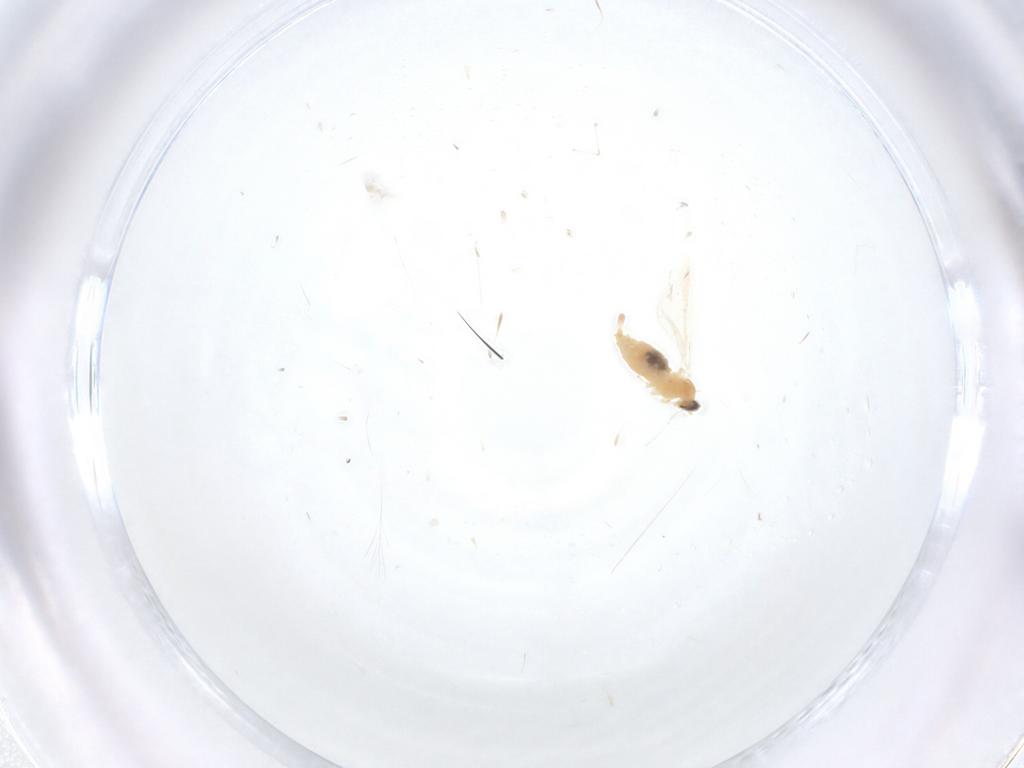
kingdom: Animalia
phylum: Arthropoda
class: Insecta
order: Diptera
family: Cecidomyiidae
